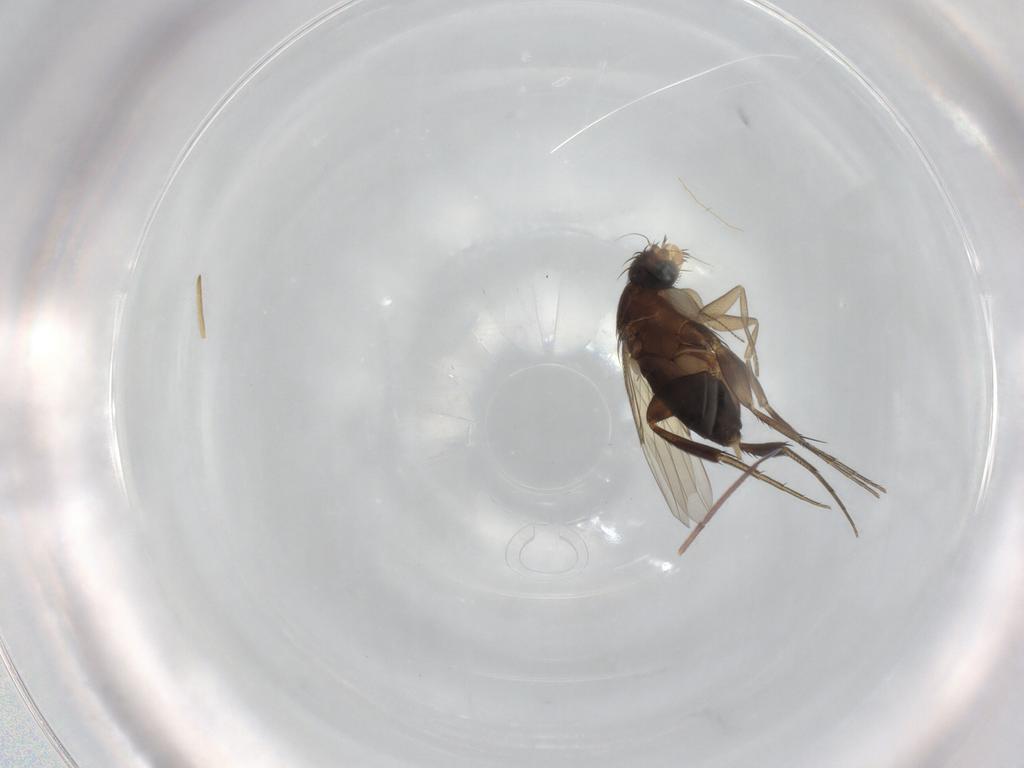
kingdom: Animalia
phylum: Arthropoda
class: Insecta
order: Diptera
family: Phoridae
